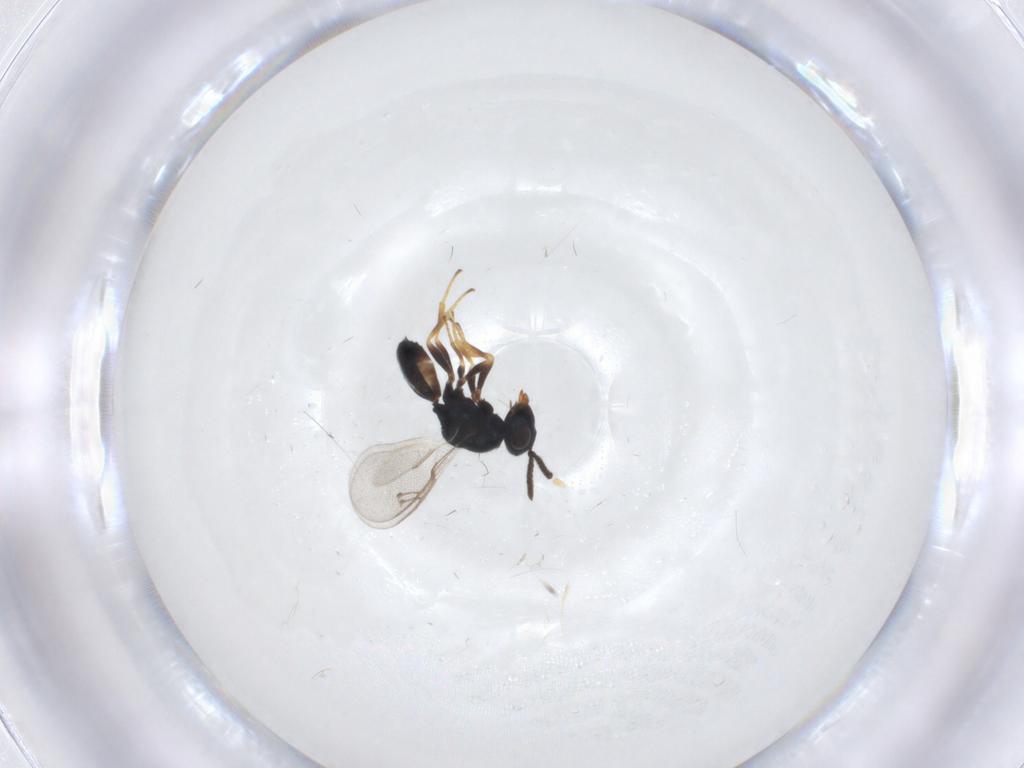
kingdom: Animalia
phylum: Arthropoda
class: Insecta
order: Hymenoptera
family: Pteromalidae
